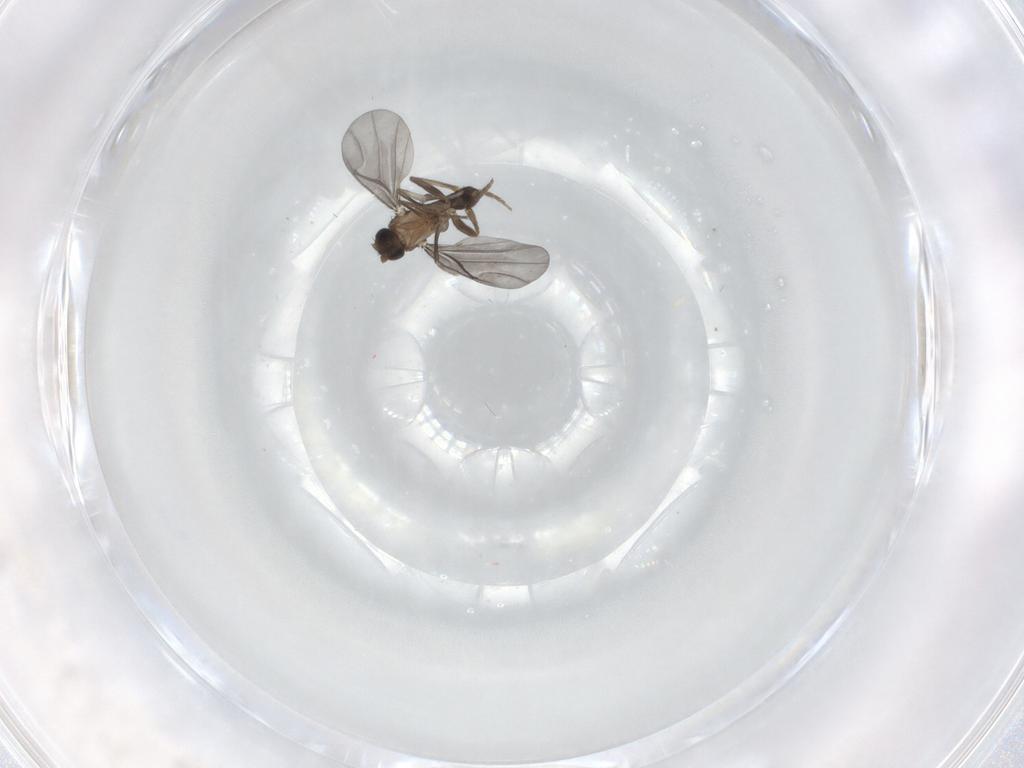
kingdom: Animalia
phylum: Arthropoda
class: Insecta
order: Diptera
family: Phoridae
